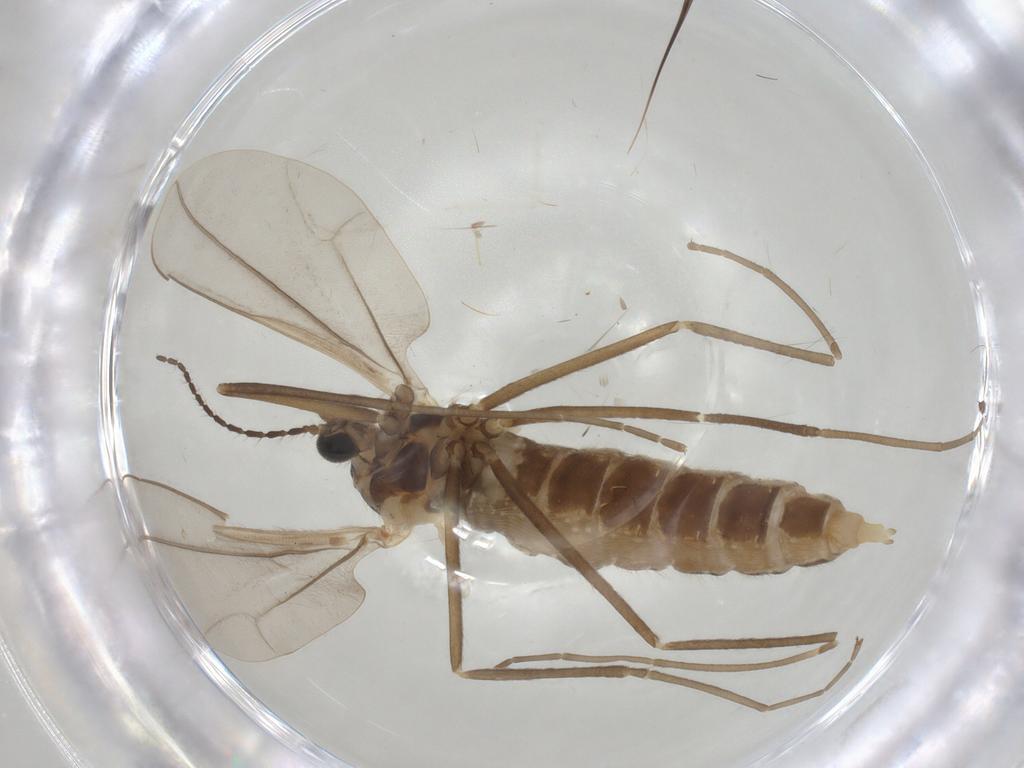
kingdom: Animalia
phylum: Arthropoda
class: Insecta
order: Diptera
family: Cecidomyiidae
